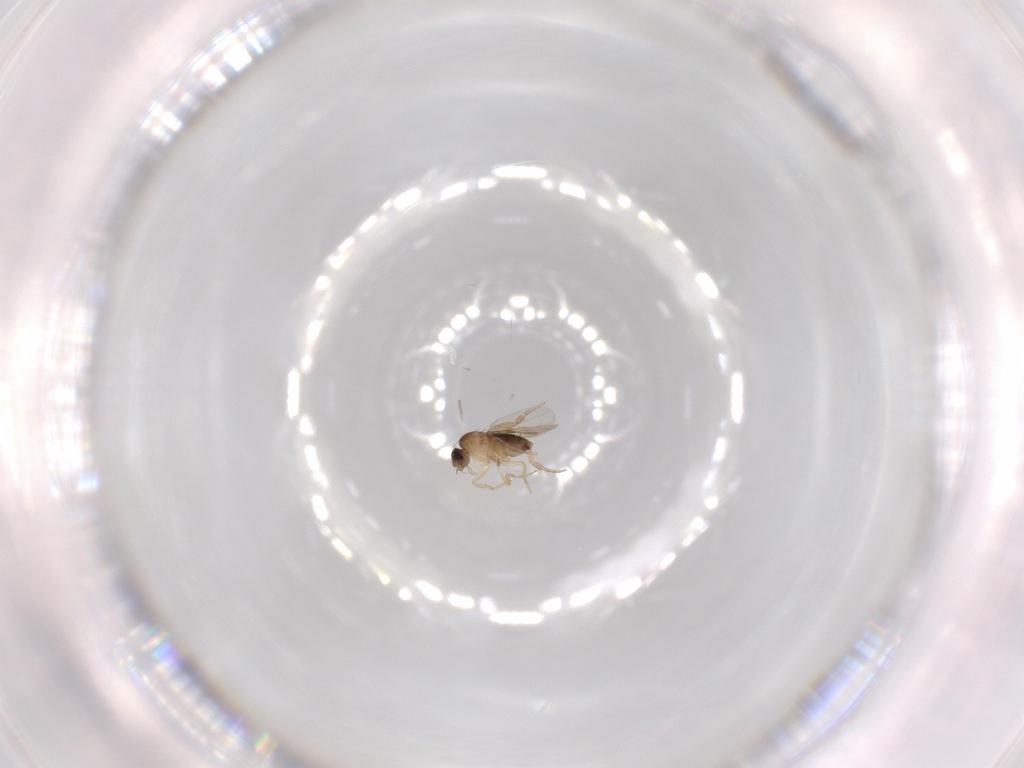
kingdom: Animalia
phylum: Arthropoda
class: Insecta
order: Diptera
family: Phoridae
